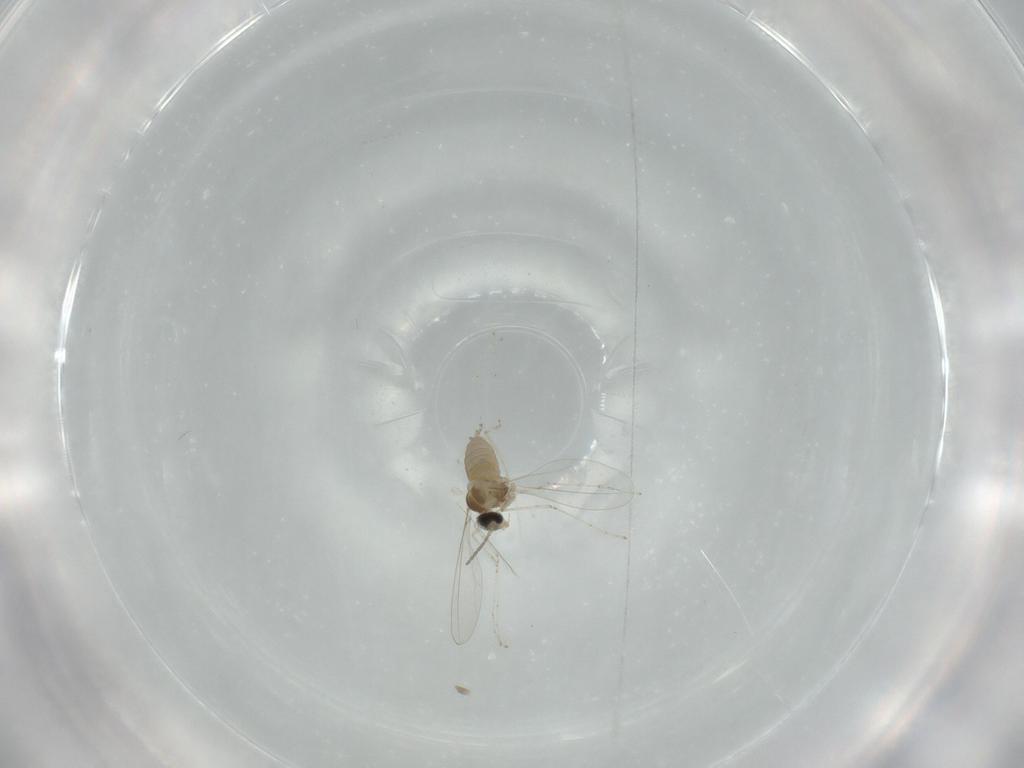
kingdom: Animalia
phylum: Arthropoda
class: Insecta
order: Diptera
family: Cecidomyiidae
